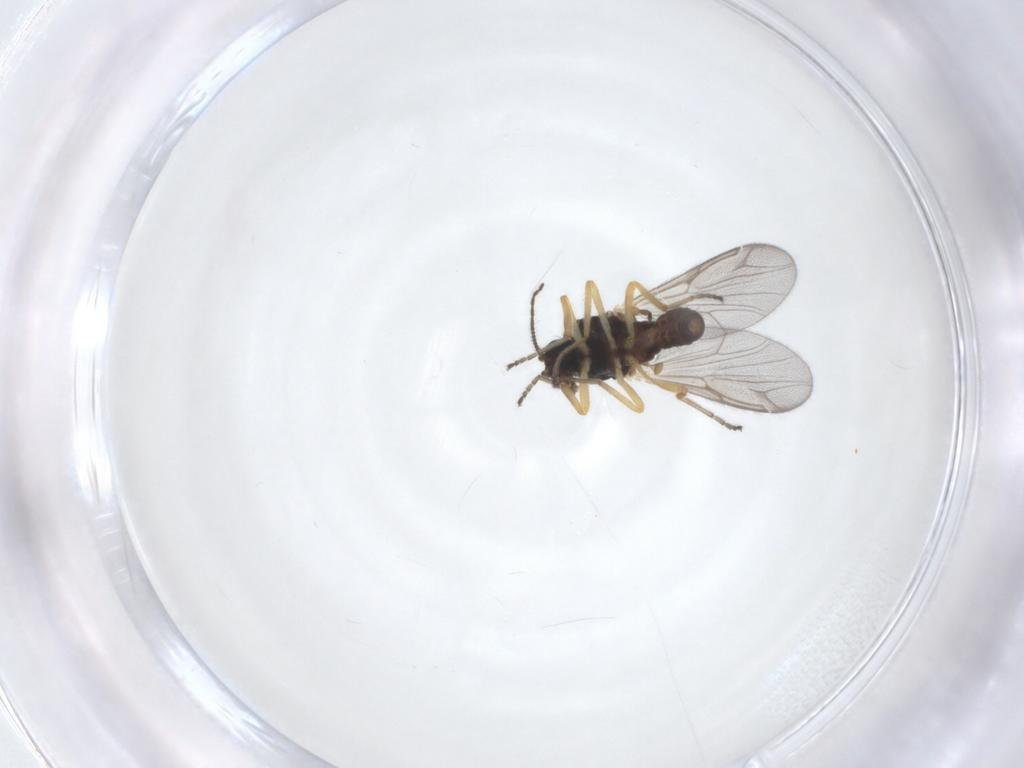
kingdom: Animalia
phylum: Arthropoda
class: Insecta
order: Diptera
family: Ceratopogonidae
